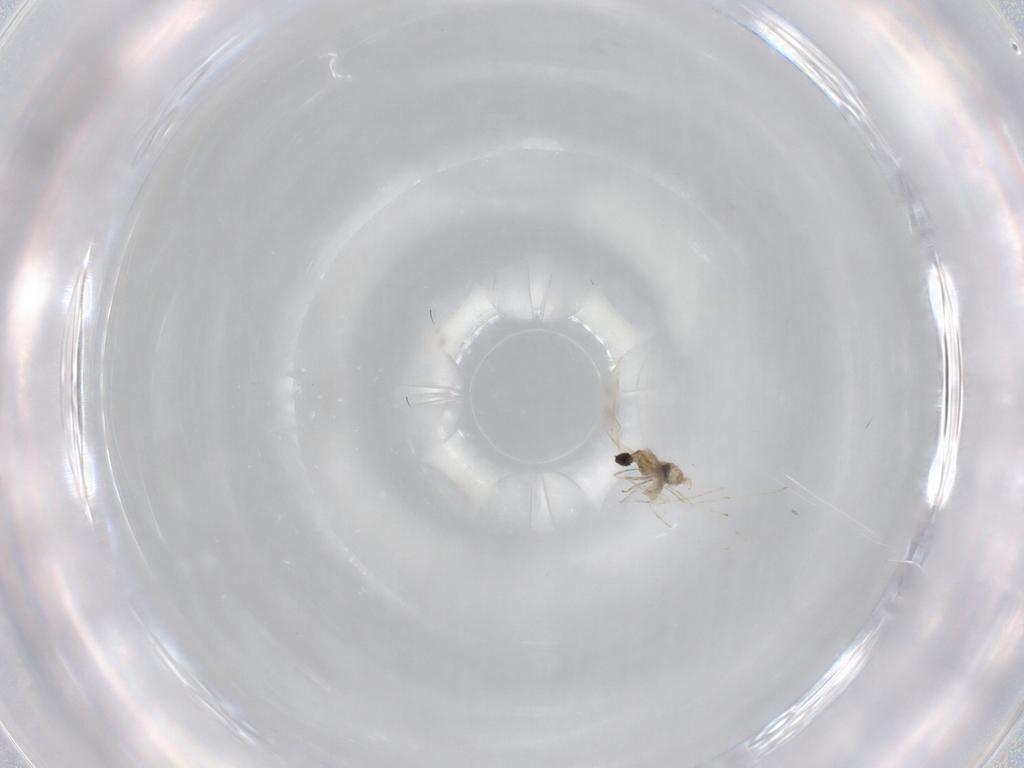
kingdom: Animalia
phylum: Arthropoda
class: Insecta
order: Diptera
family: Cecidomyiidae
